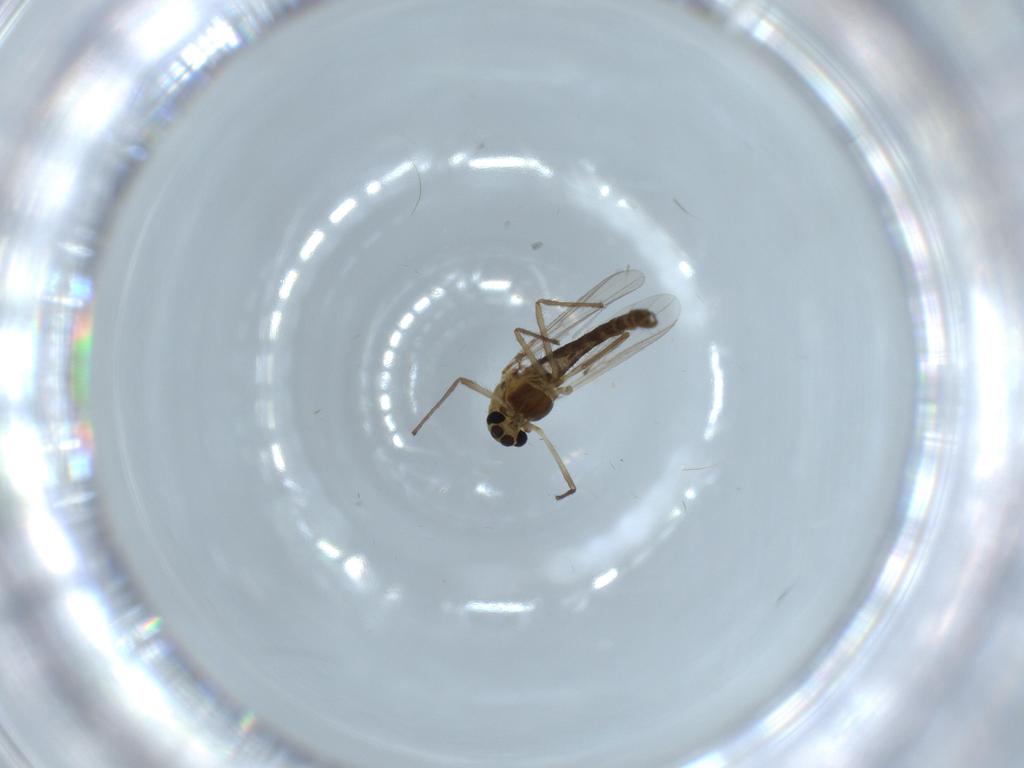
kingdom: Animalia
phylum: Arthropoda
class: Insecta
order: Diptera
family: Chironomidae
